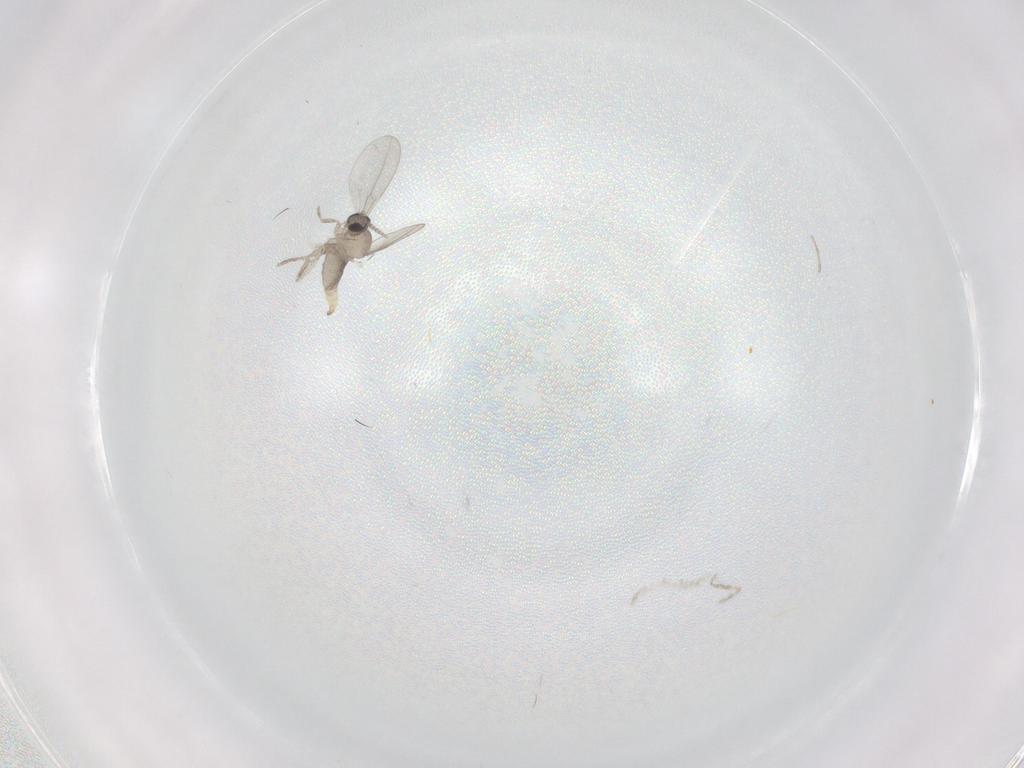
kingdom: Animalia
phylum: Arthropoda
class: Insecta
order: Diptera
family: Cecidomyiidae
